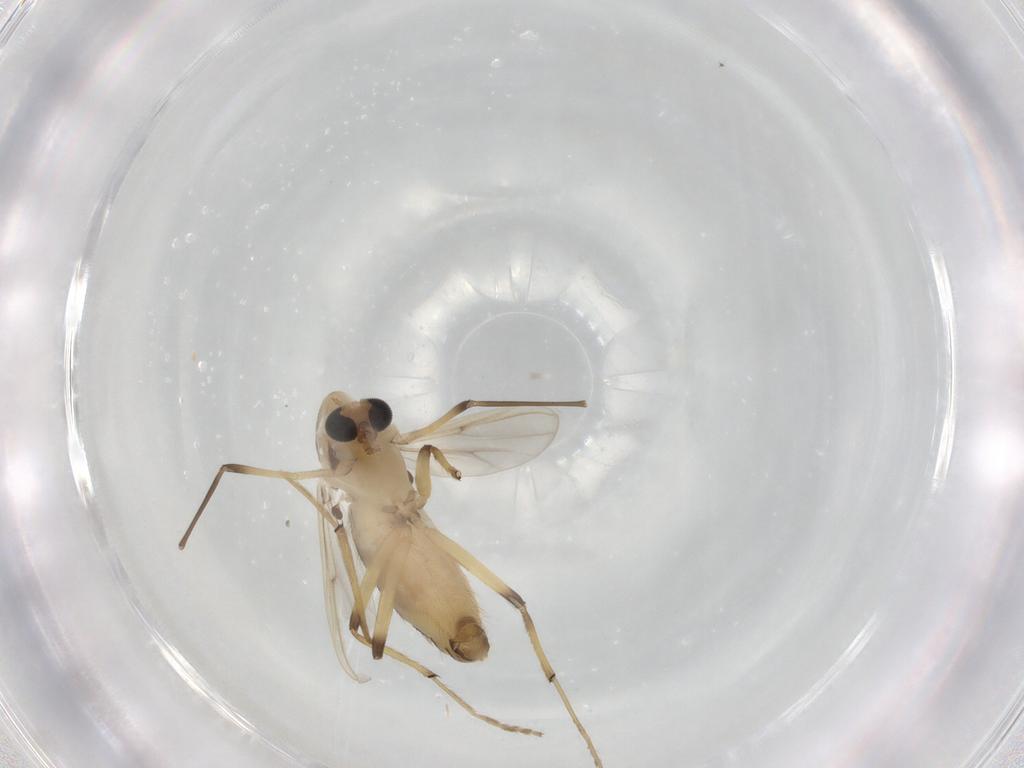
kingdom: Animalia
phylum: Arthropoda
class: Insecta
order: Diptera
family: Chironomidae
